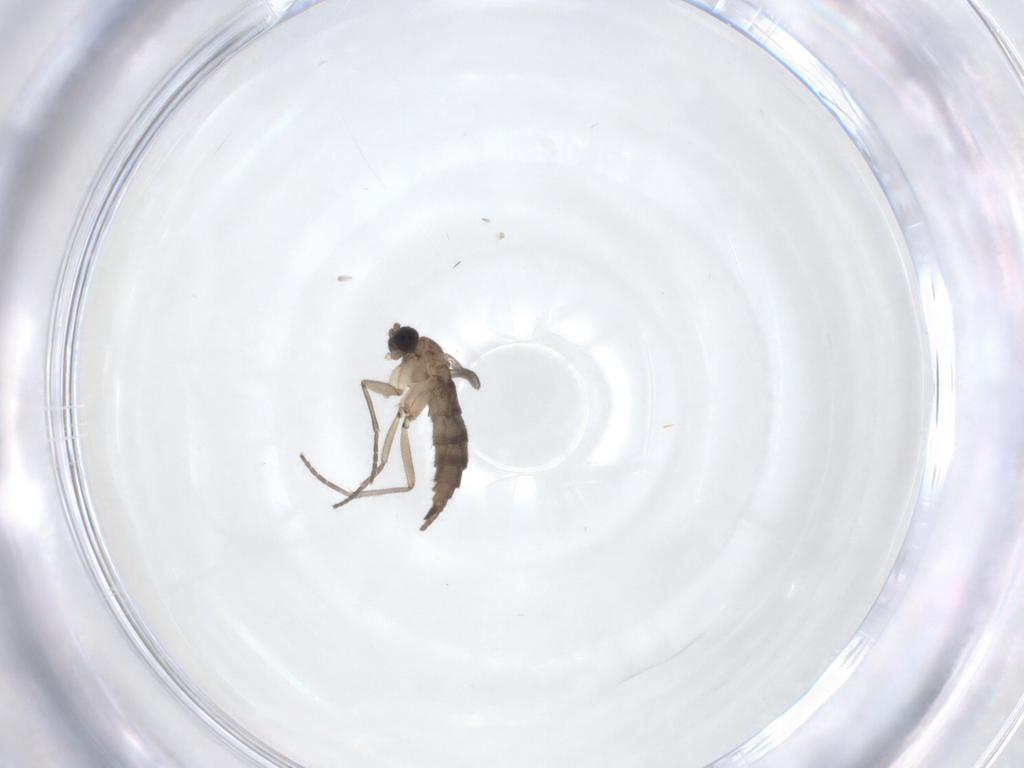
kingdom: Animalia
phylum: Arthropoda
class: Insecta
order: Diptera
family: Sciaridae
